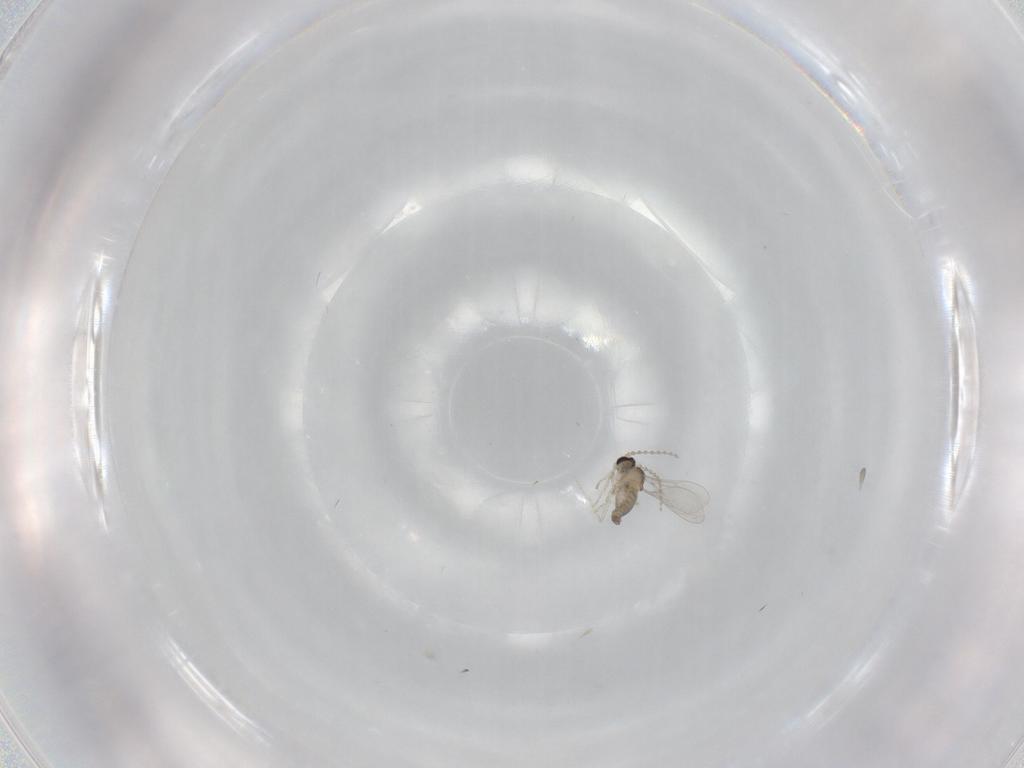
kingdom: Animalia
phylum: Arthropoda
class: Insecta
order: Diptera
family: Cecidomyiidae
